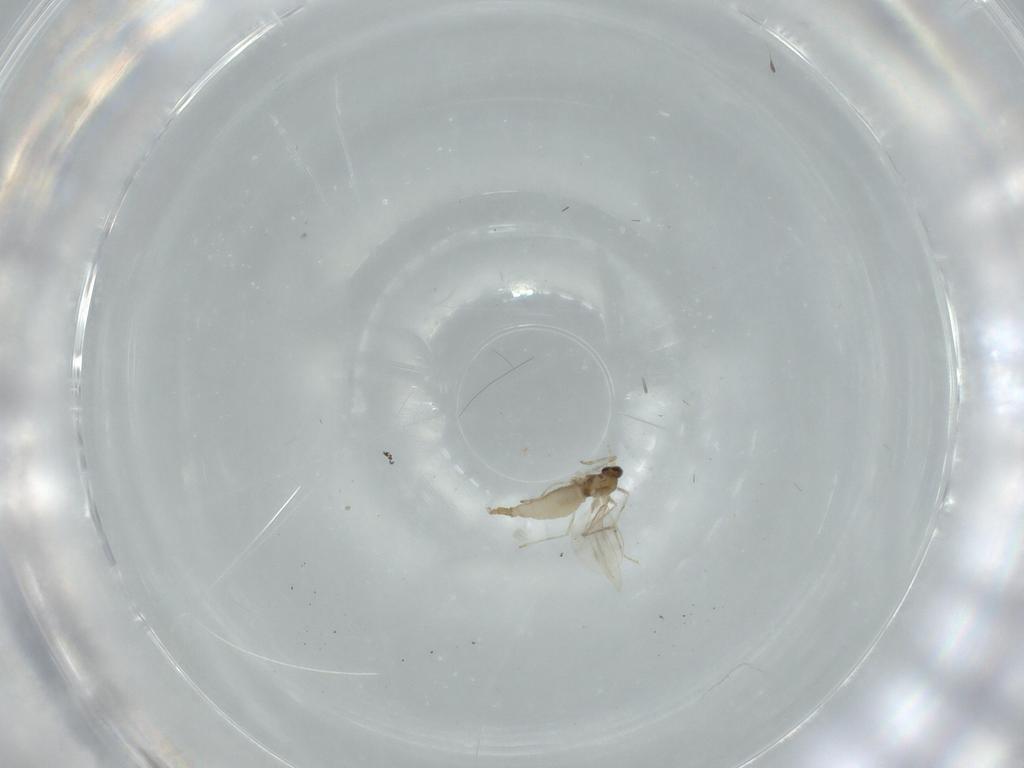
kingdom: Animalia
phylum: Arthropoda
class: Insecta
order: Diptera
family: Cecidomyiidae
